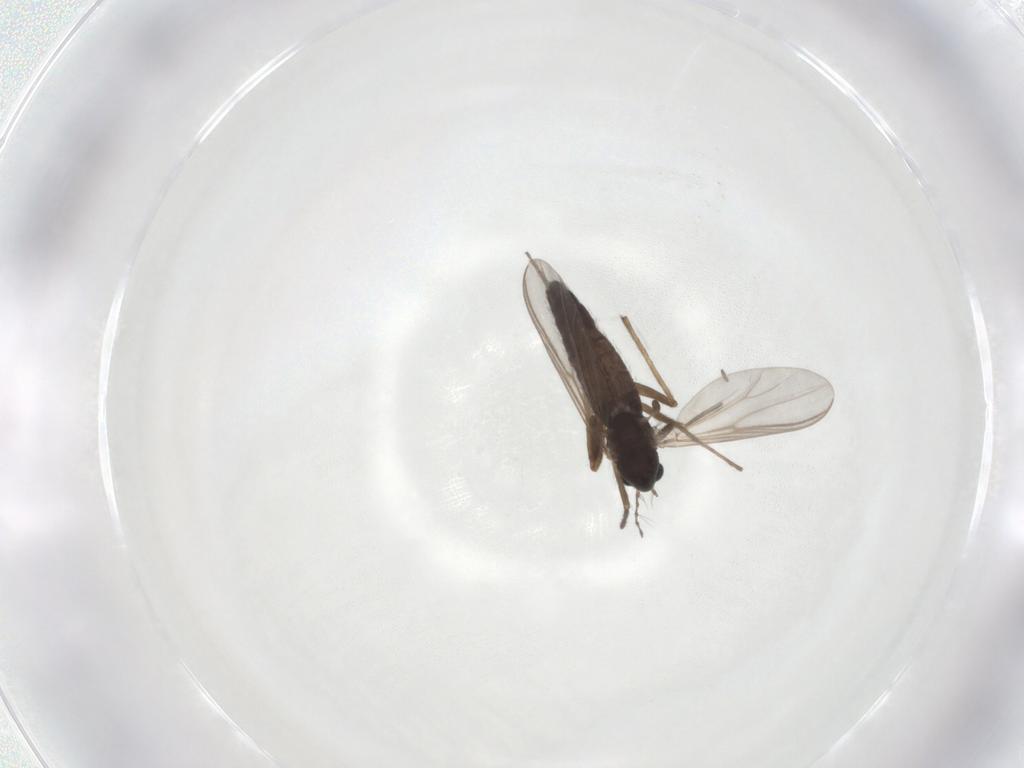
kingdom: Animalia
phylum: Arthropoda
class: Insecta
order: Diptera
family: Chironomidae
